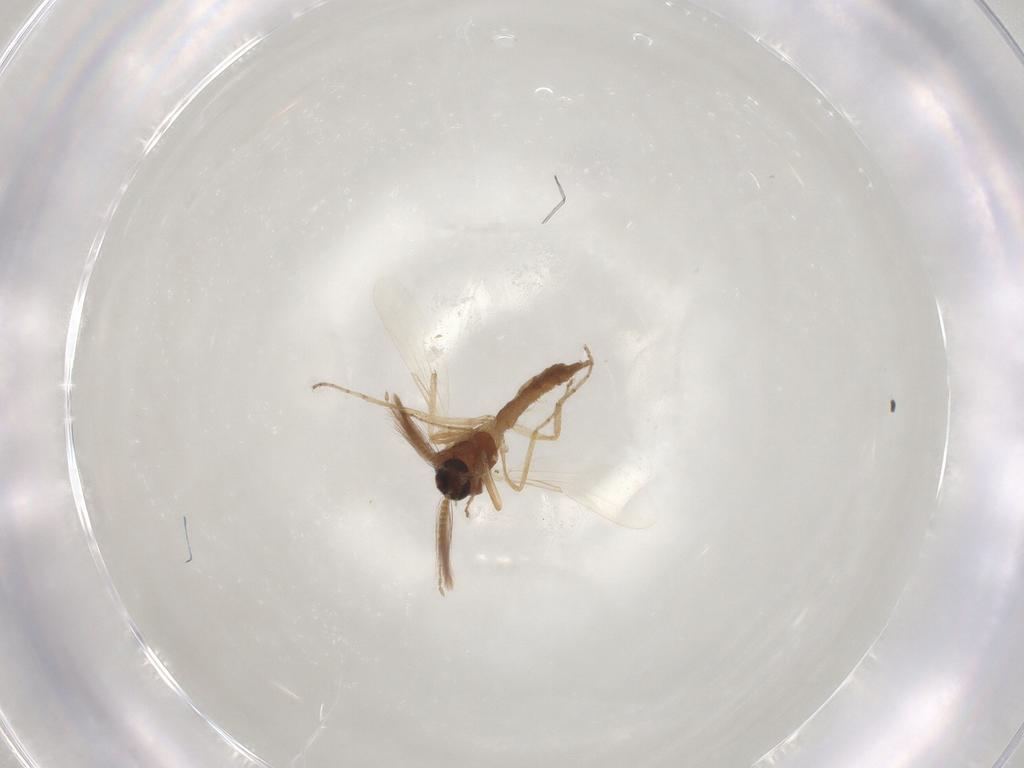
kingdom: Animalia
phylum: Arthropoda
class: Insecta
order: Diptera
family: Ceratopogonidae
